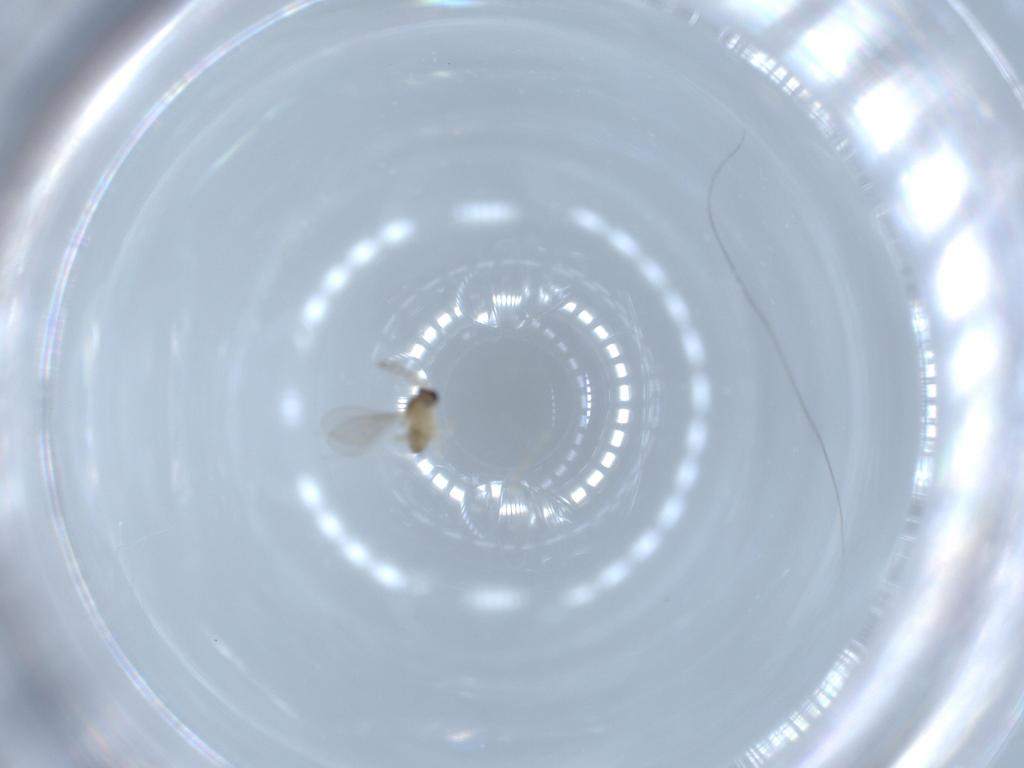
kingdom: Animalia
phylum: Arthropoda
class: Insecta
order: Diptera
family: Cecidomyiidae
